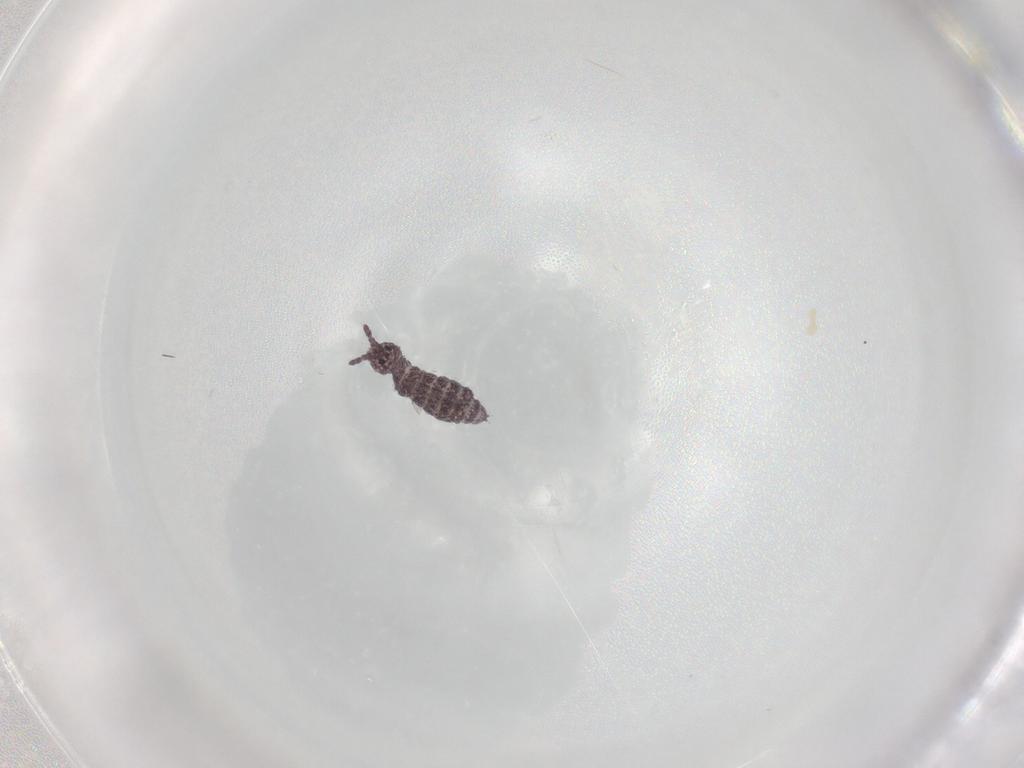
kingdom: Animalia
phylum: Arthropoda
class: Collembola
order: Poduromorpha
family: Hypogastruridae
